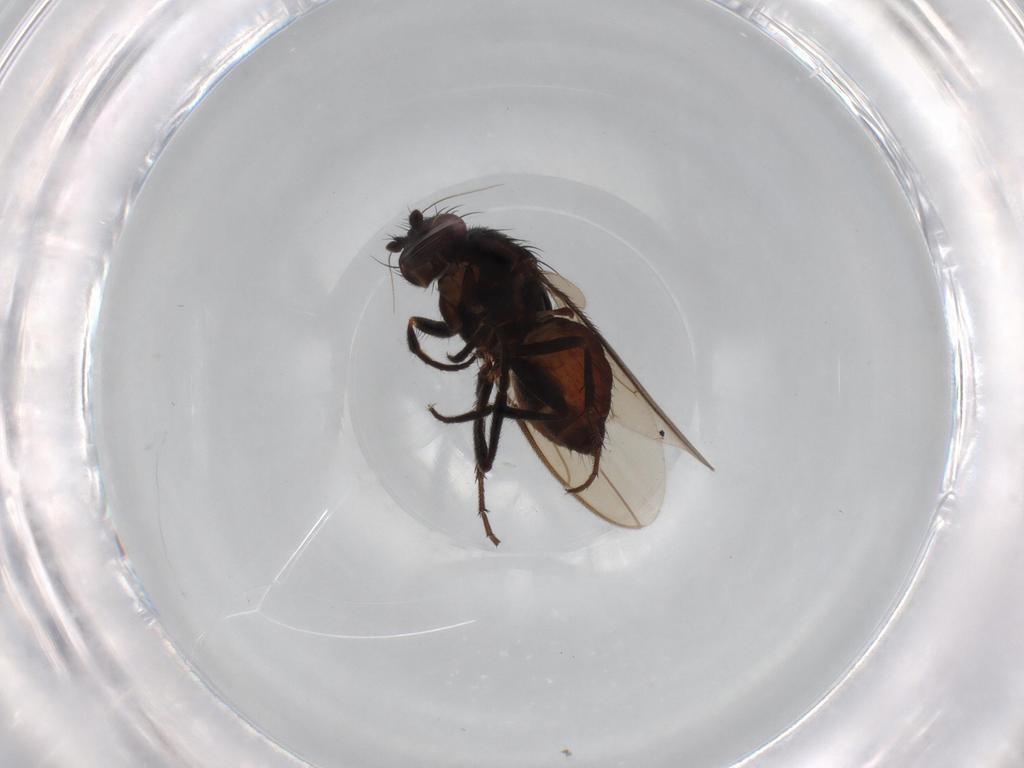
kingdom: Animalia
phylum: Arthropoda
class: Insecta
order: Diptera
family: Sphaeroceridae
